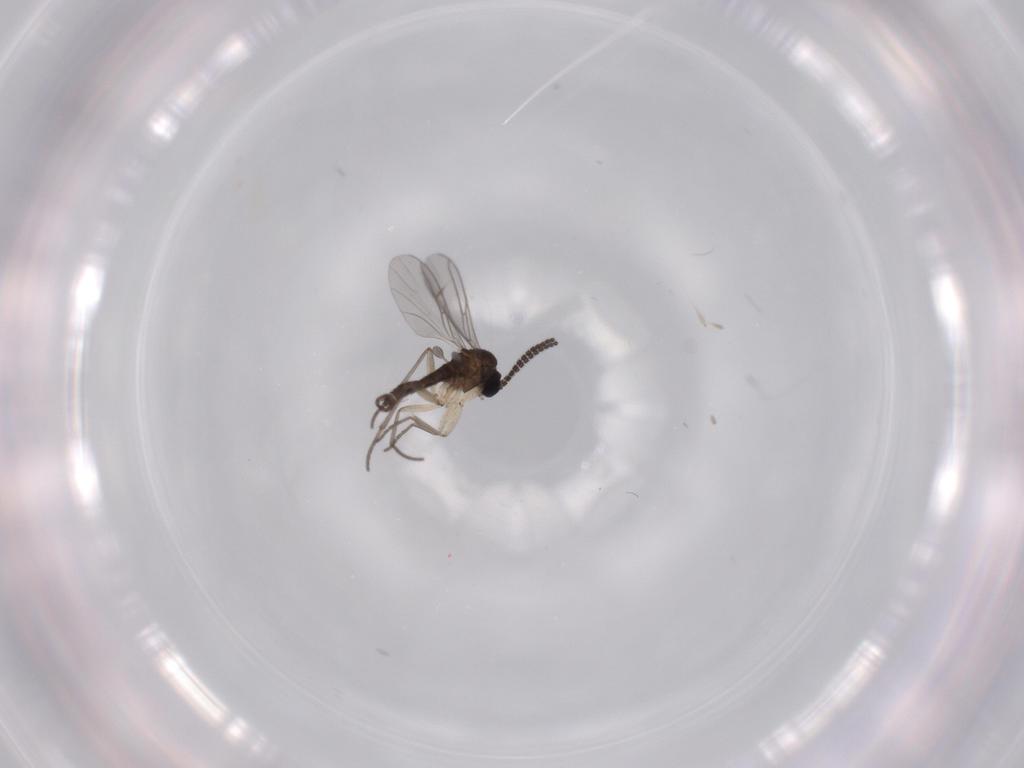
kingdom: Animalia
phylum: Arthropoda
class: Insecta
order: Diptera
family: Sciaridae
